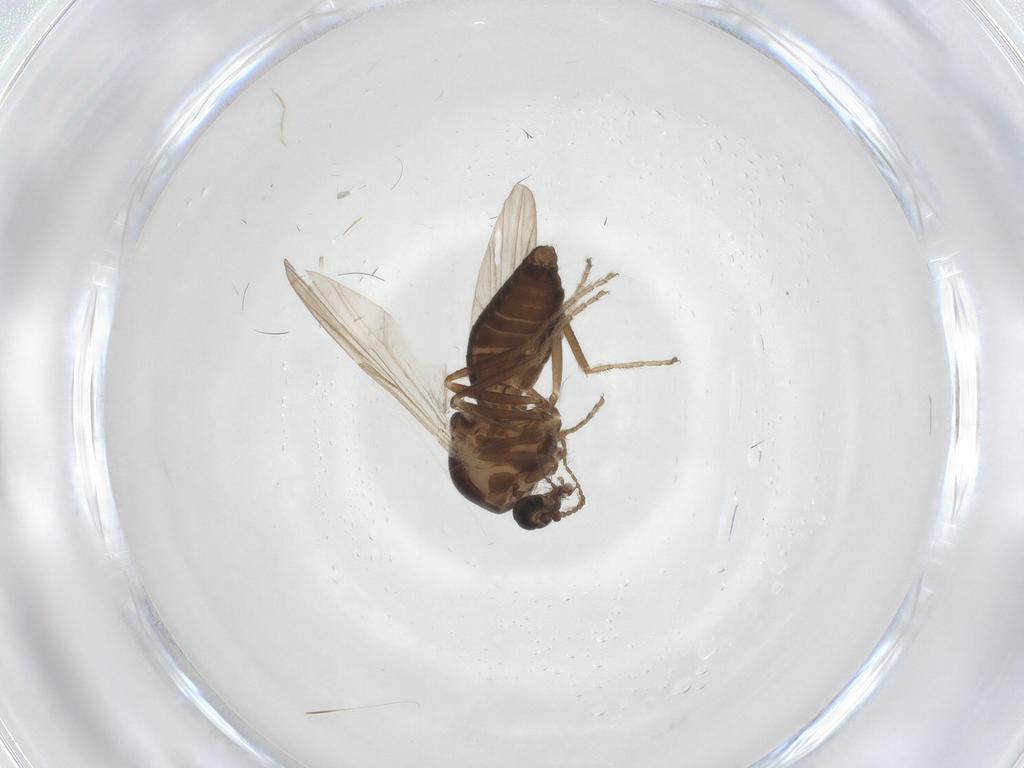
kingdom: Animalia
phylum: Arthropoda
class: Insecta
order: Diptera
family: Ceratopogonidae
